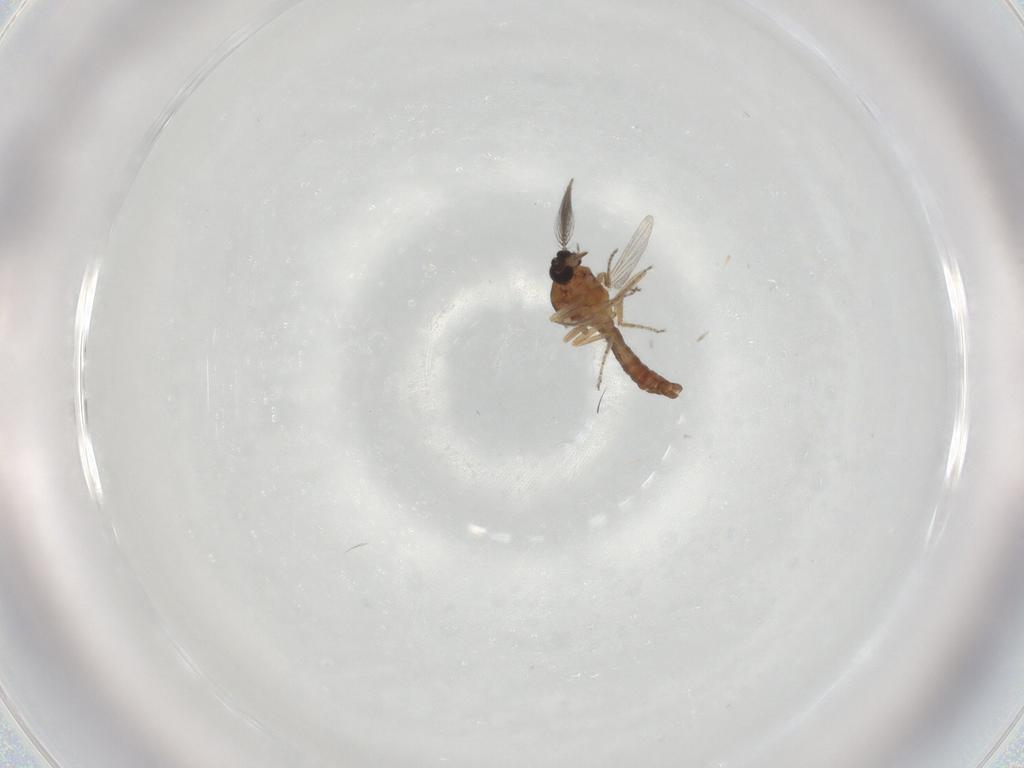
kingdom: Animalia
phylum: Arthropoda
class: Insecta
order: Diptera
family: Ceratopogonidae
